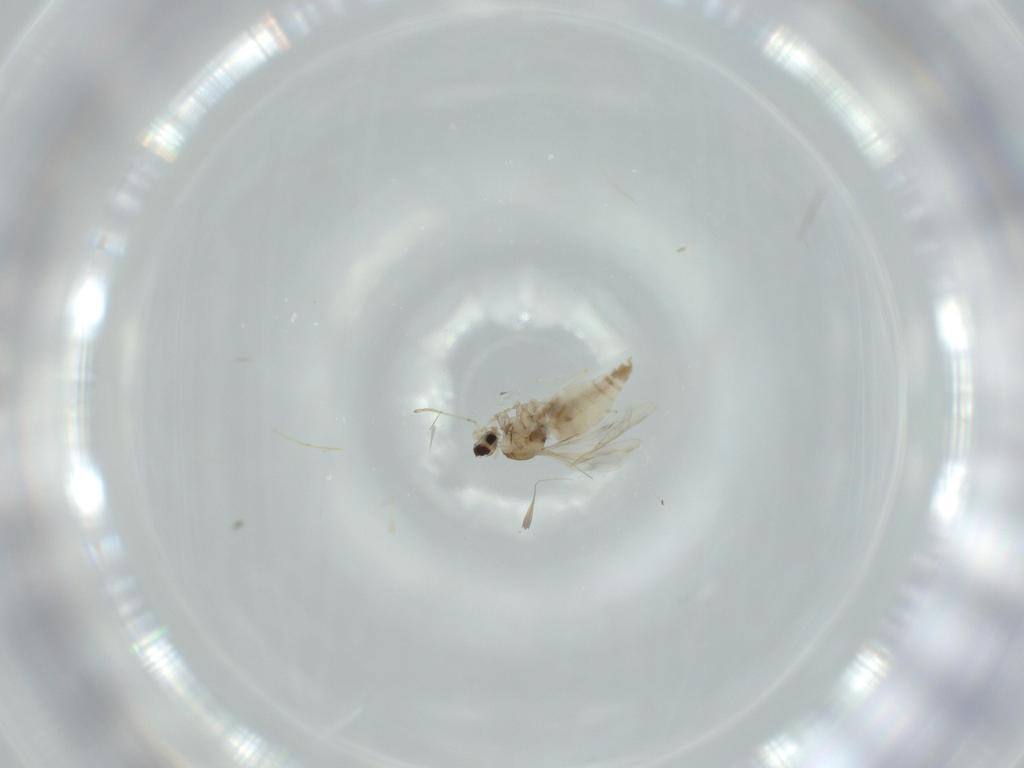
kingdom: Animalia
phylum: Arthropoda
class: Insecta
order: Diptera
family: Cecidomyiidae
